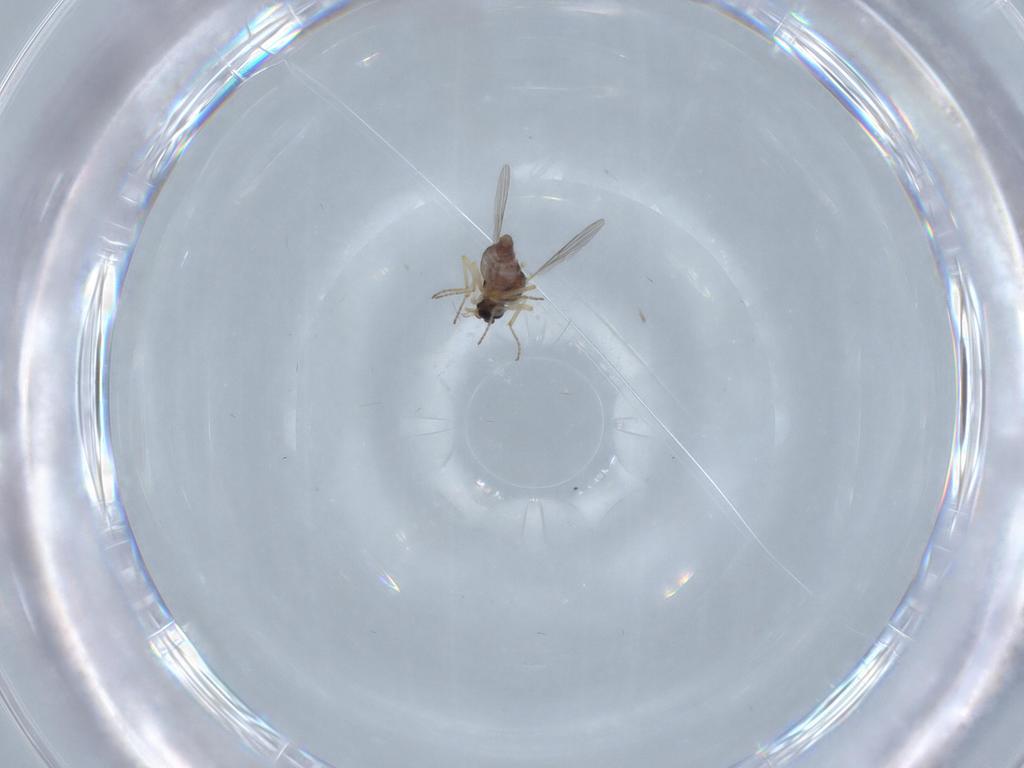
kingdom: Animalia
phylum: Arthropoda
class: Insecta
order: Diptera
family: Ceratopogonidae
